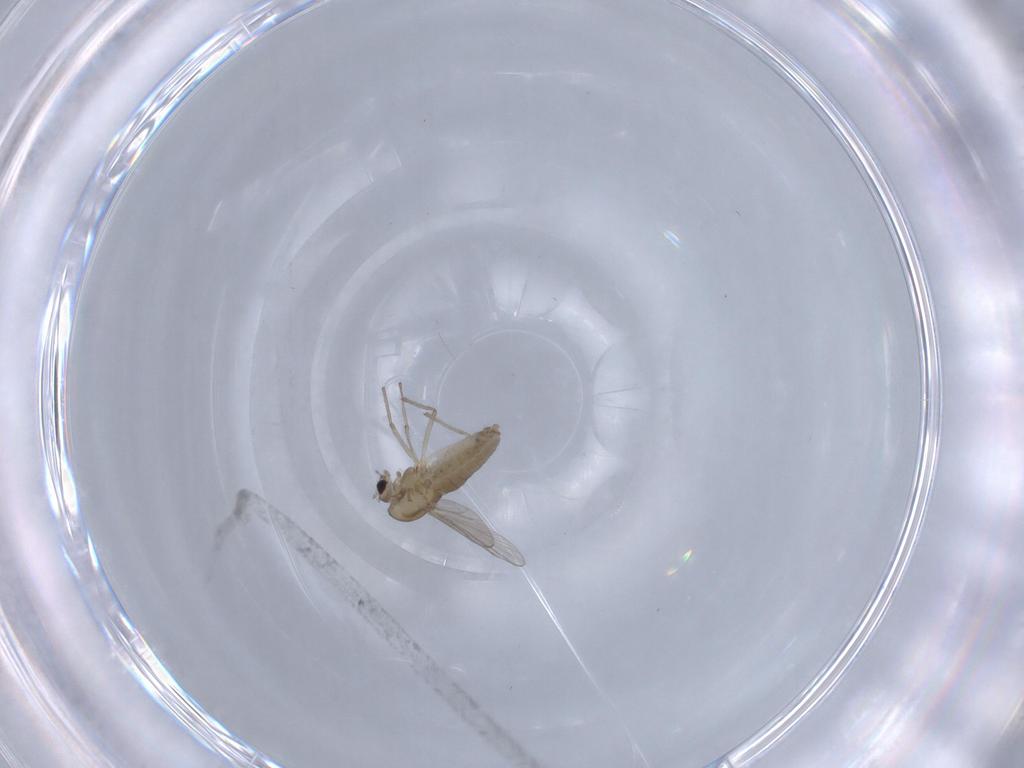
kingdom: Animalia
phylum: Arthropoda
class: Insecta
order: Diptera
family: Chironomidae
